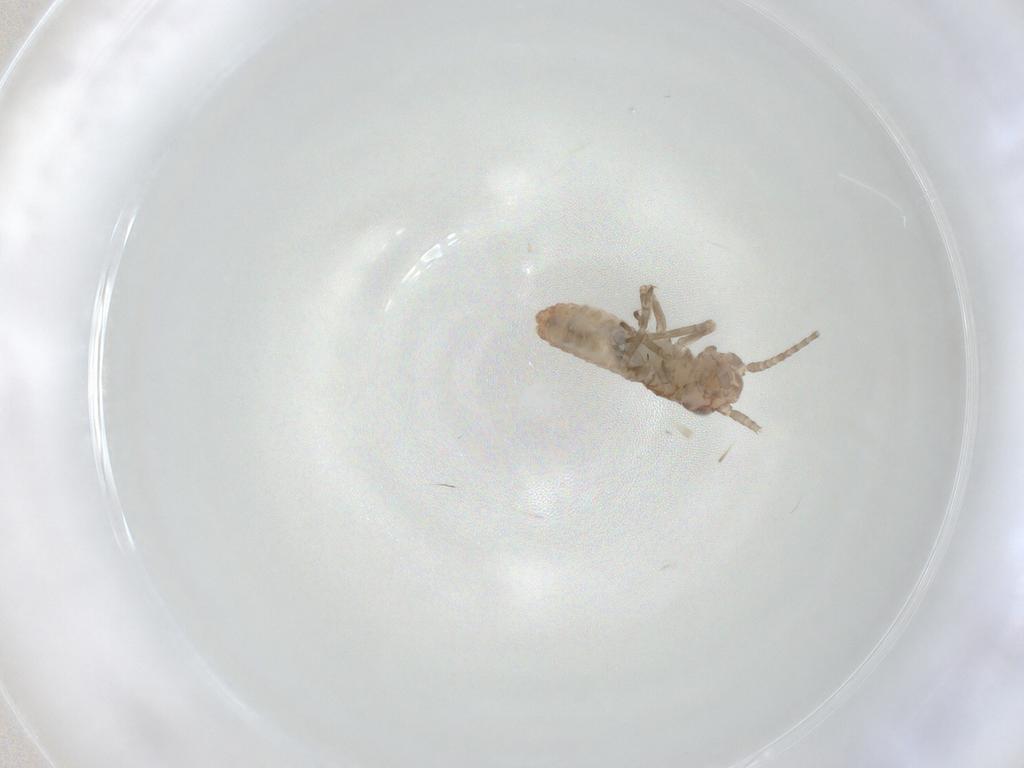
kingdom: Animalia
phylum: Arthropoda
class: Insecta
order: Orthoptera
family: Mogoplistidae
